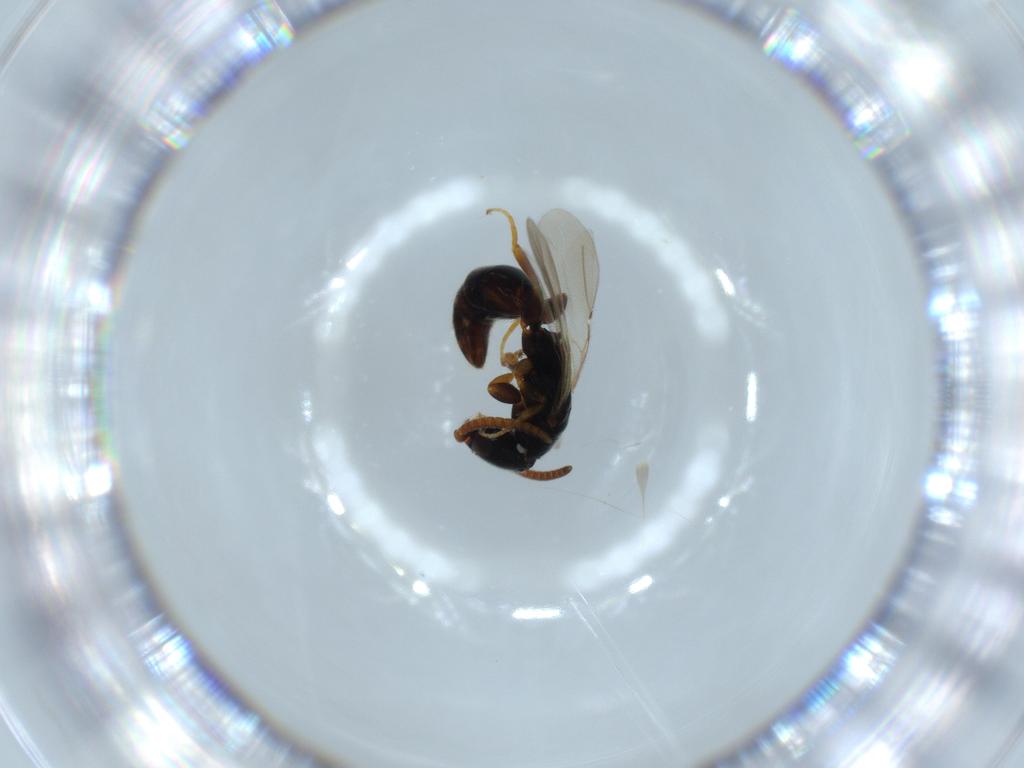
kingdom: Animalia
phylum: Arthropoda
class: Insecta
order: Hymenoptera
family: Bethylidae
